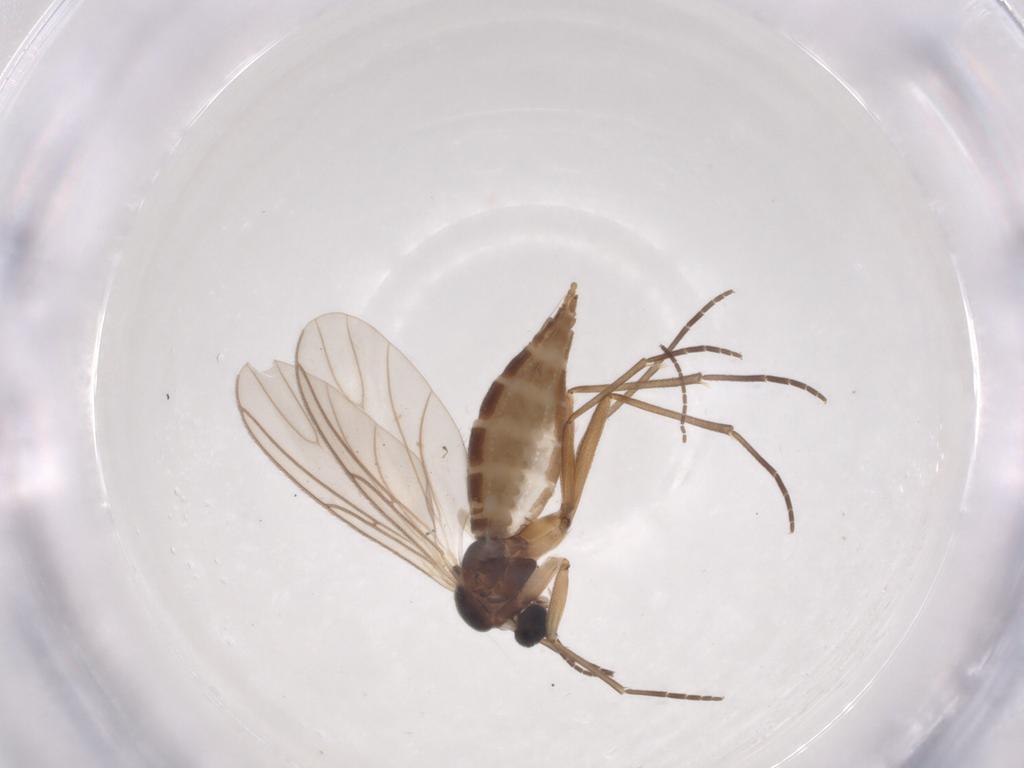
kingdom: Animalia
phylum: Arthropoda
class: Insecta
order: Diptera
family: Sciaridae
